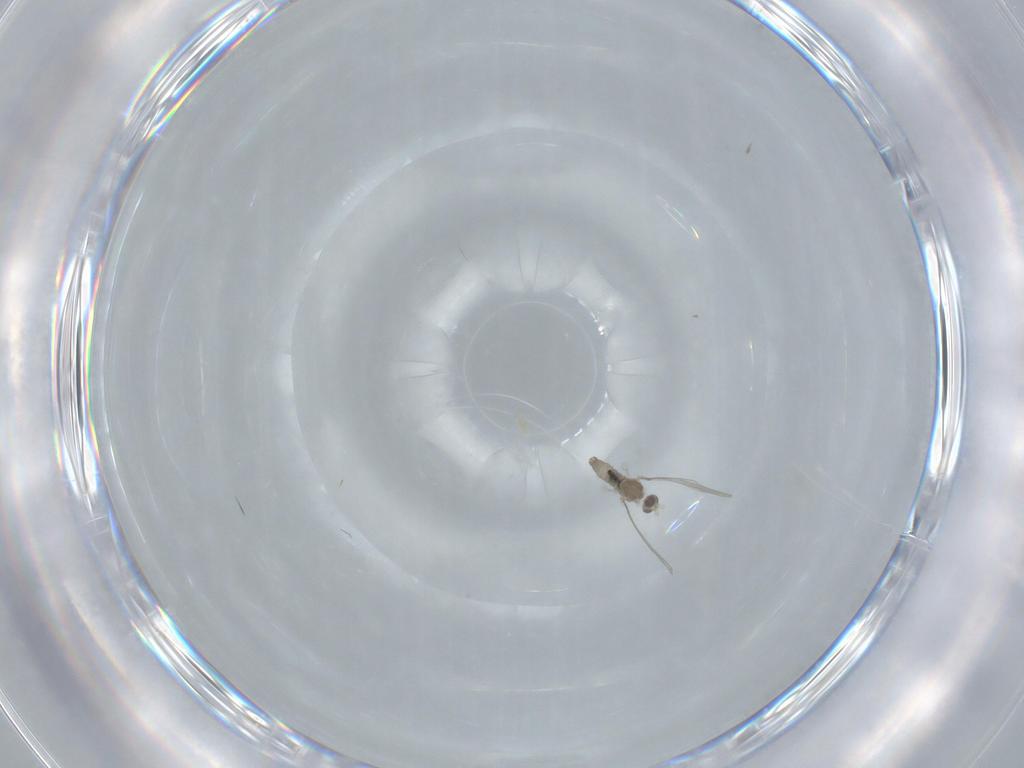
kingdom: Animalia
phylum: Arthropoda
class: Insecta
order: Diptera
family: Cecidomyiidae
